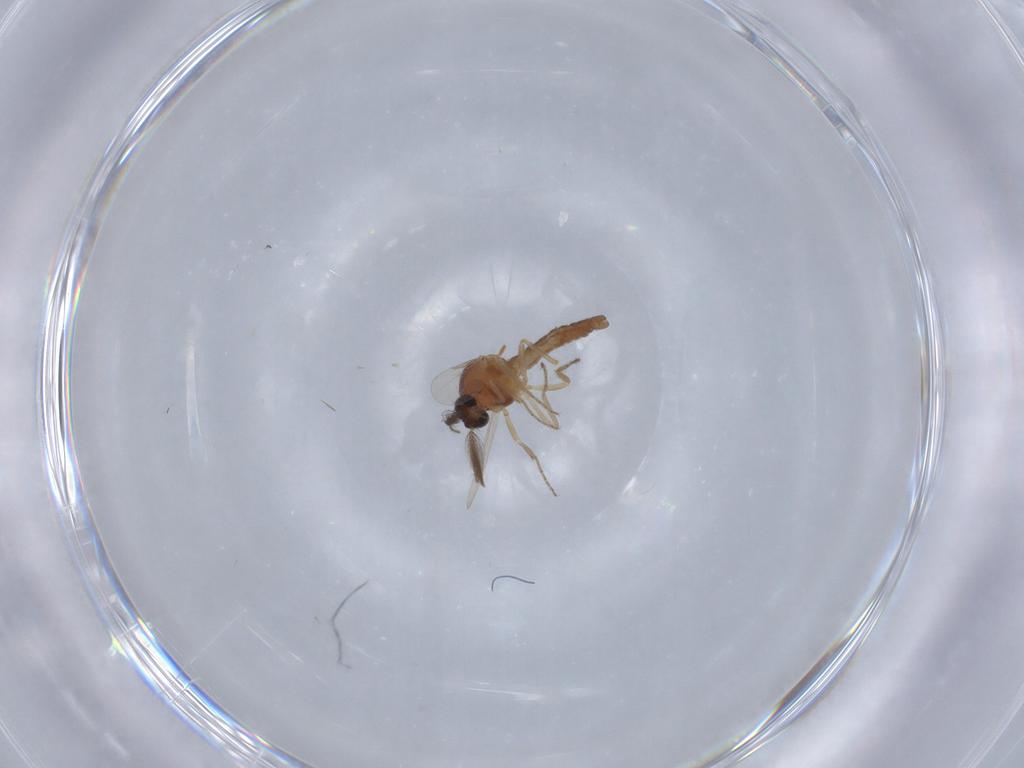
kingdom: Animalia
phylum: Arthropoda
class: Insecta
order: Diptera
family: Ceratopogonidae
